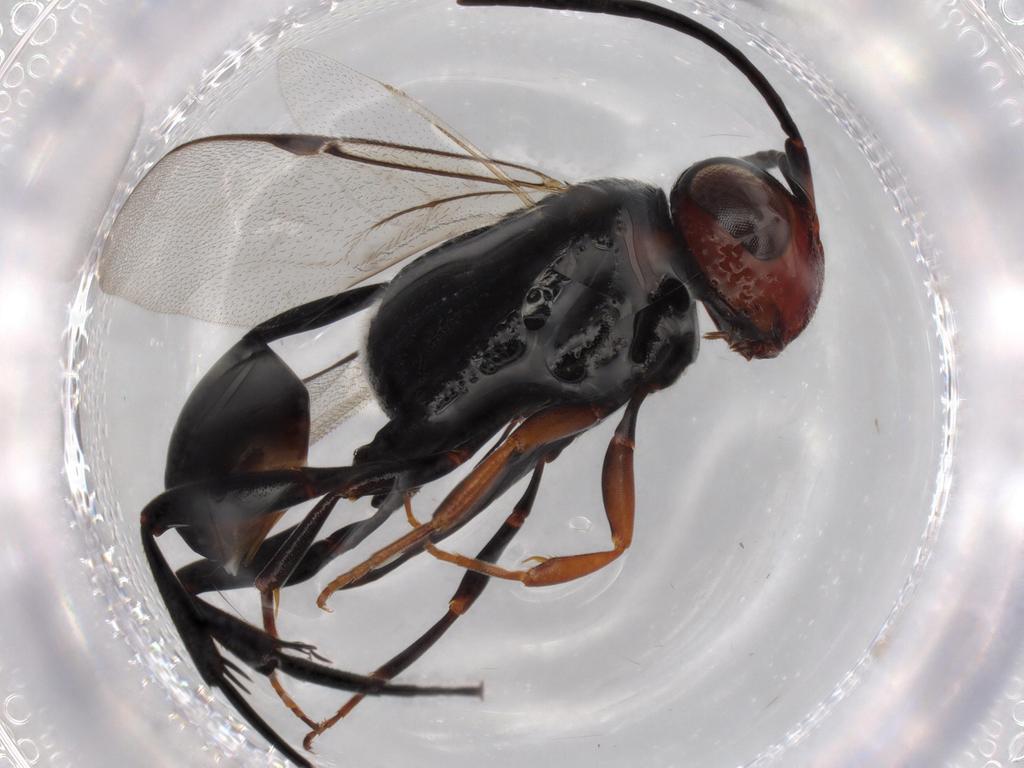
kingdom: Animalia
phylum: Arthropoda
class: Insecta
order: Hymenoptera
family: Evaniidae
